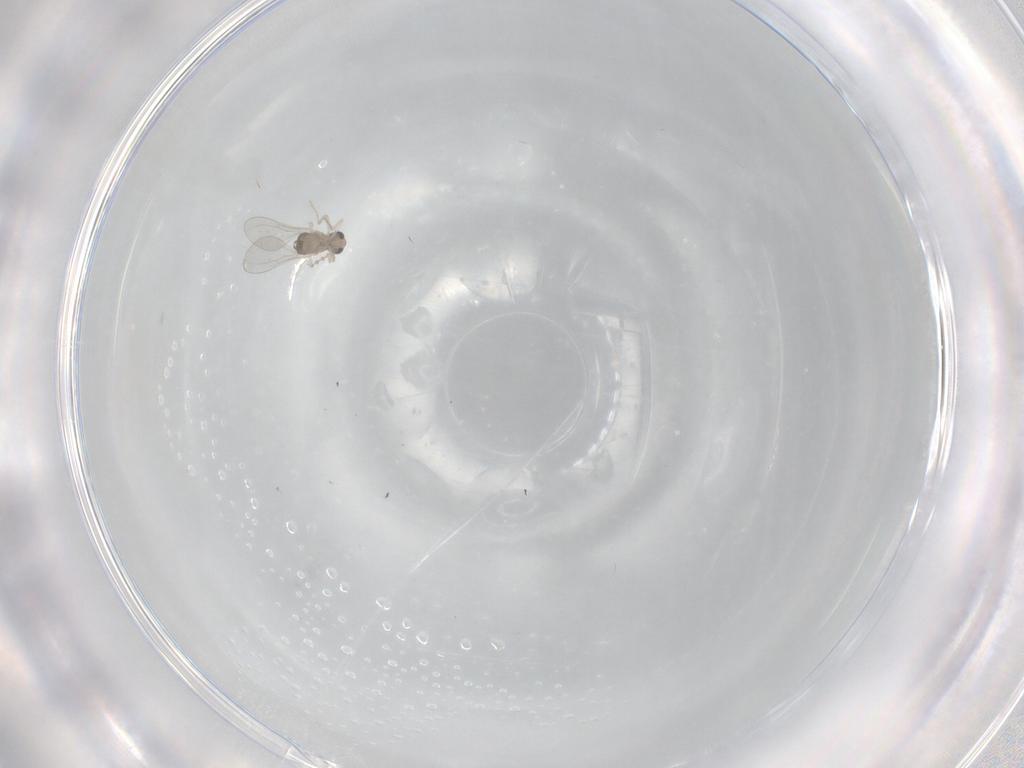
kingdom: Animalia
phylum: Arthropoda
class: Insecta
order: Diptera
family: Cecidomyiidae
